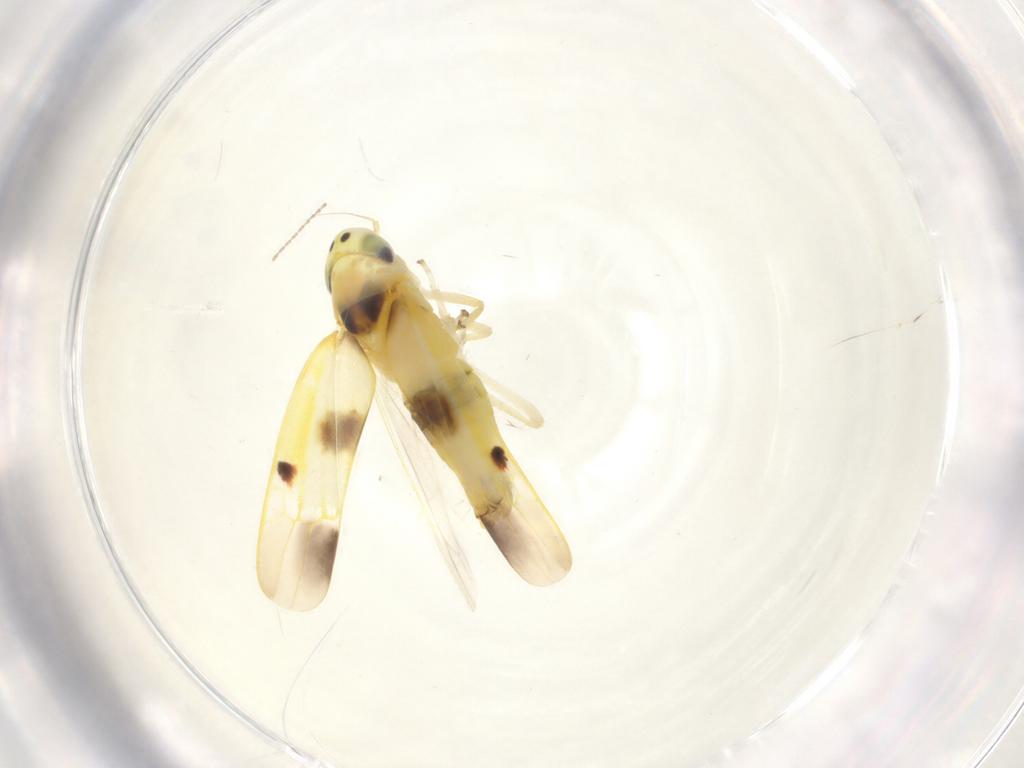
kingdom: Animalia
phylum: Arthropoda
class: Insecta
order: Hemiptera
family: Cicadellidae
